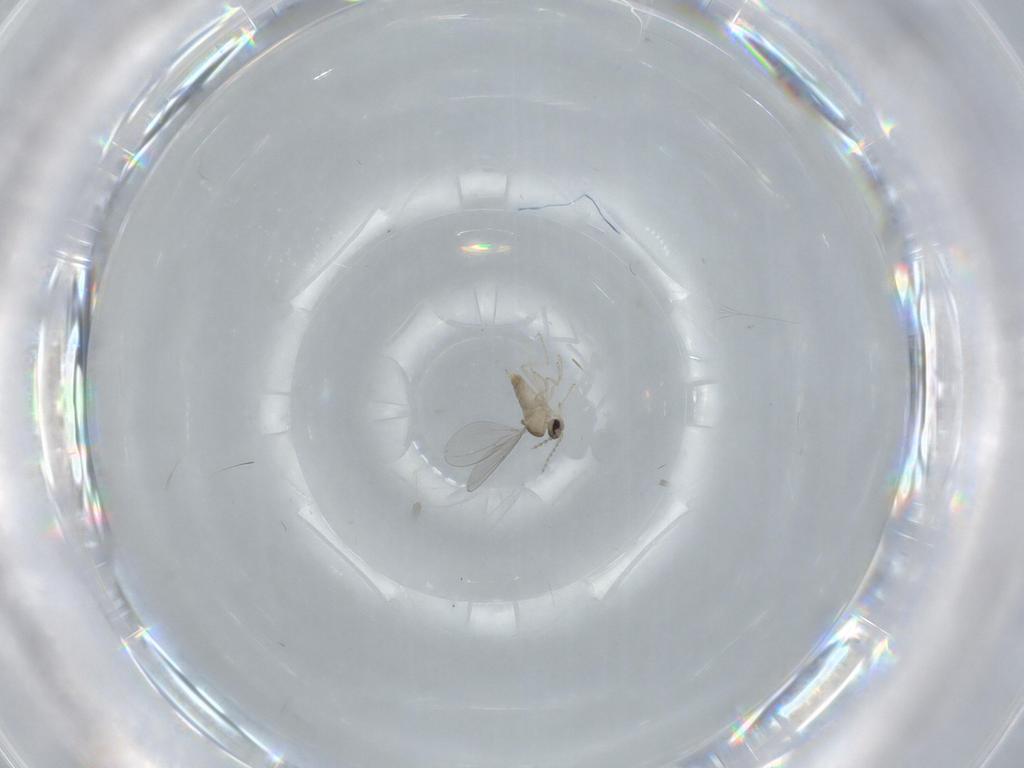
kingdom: Animalia
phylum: Arthropoda
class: Insecta
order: Diptera
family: Cecidomyiidae
